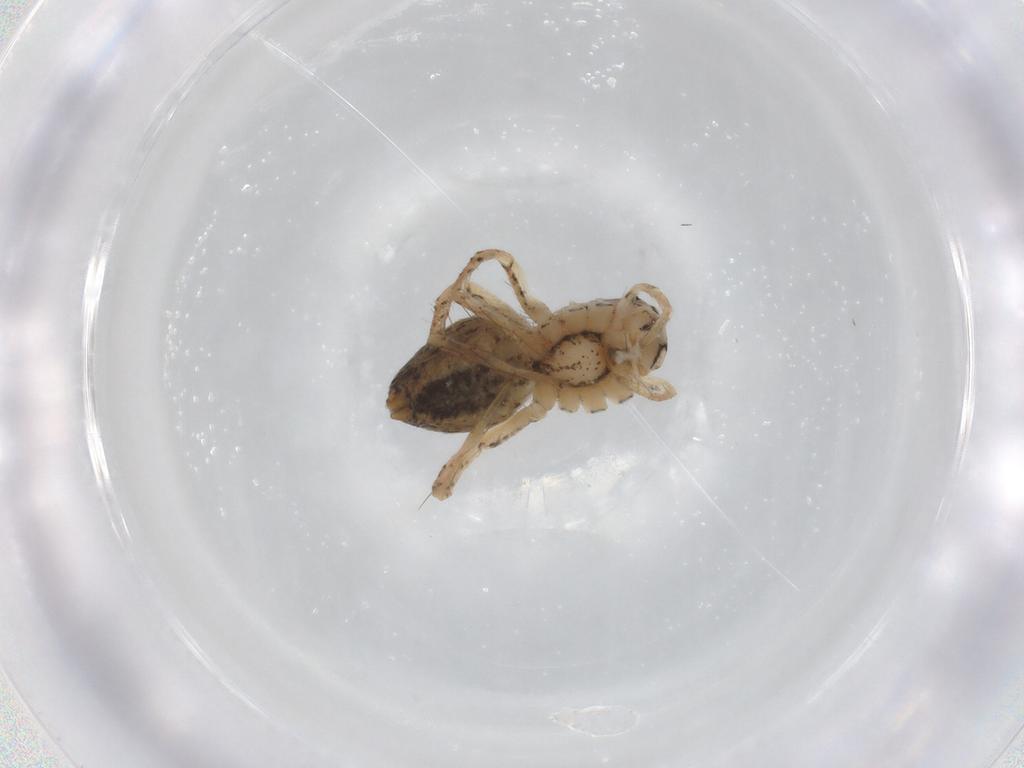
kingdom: Animalia
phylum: Arthropoda
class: Arachnida
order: Araneae
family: Oxyopidae
